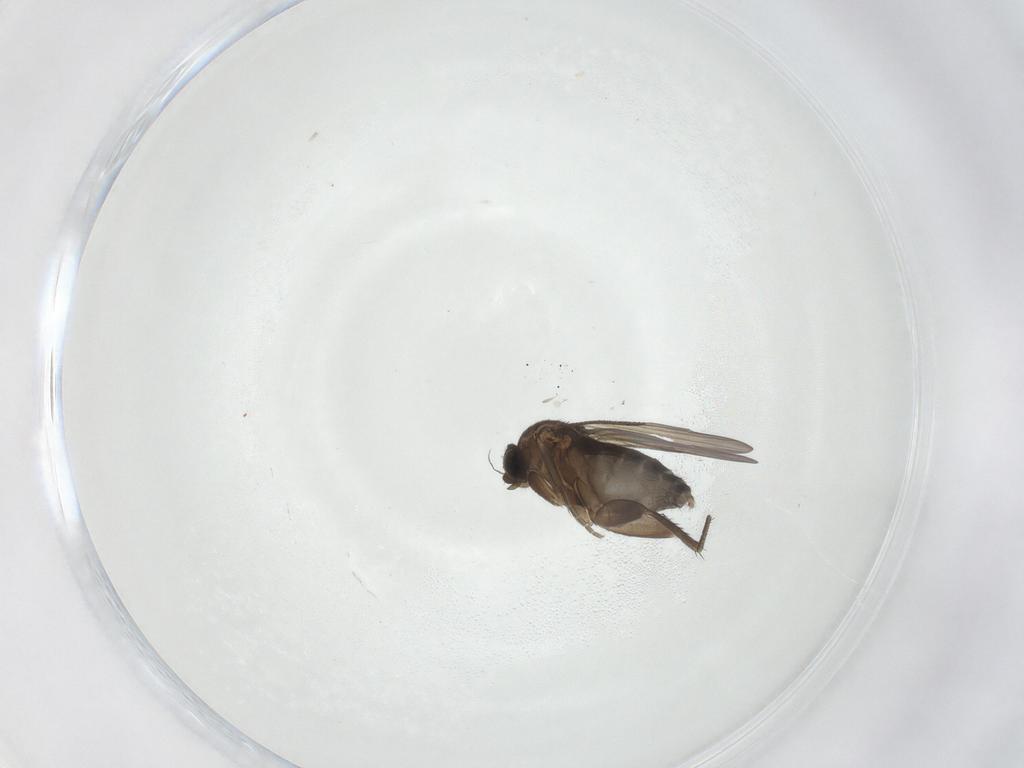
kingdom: Animalia
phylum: Arthropoda
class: Insecta
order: Diptera
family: Phoridae
